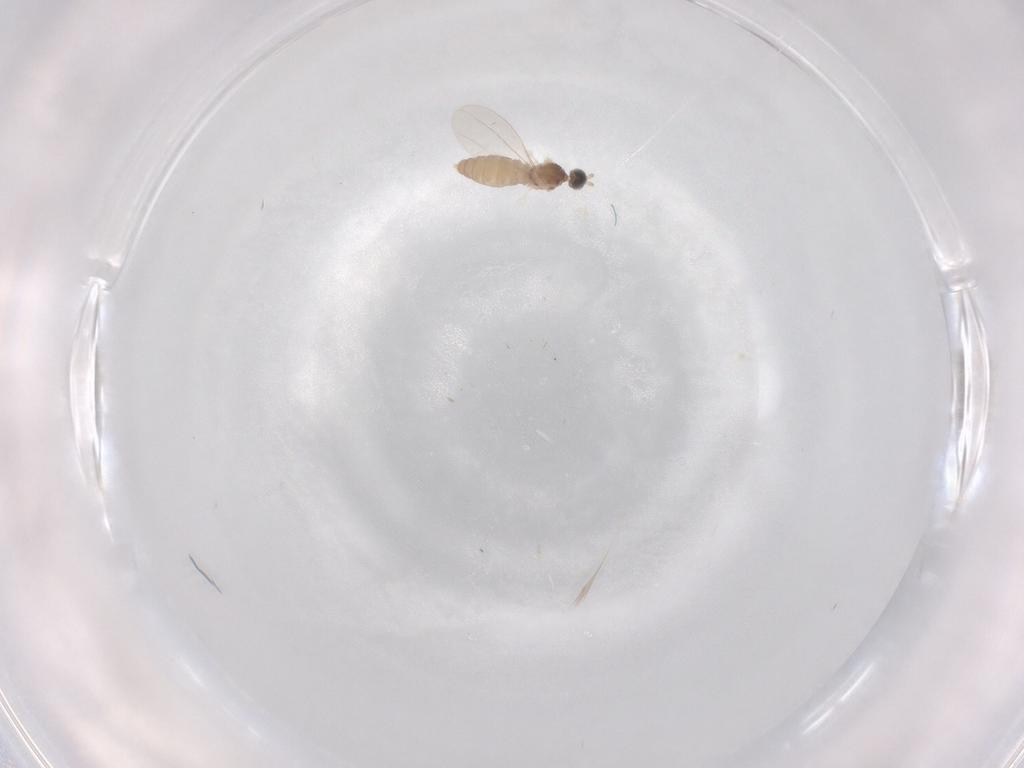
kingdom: Animalia
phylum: Arthropoda
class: Insecta
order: Diptera
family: Cecidomyiidae
